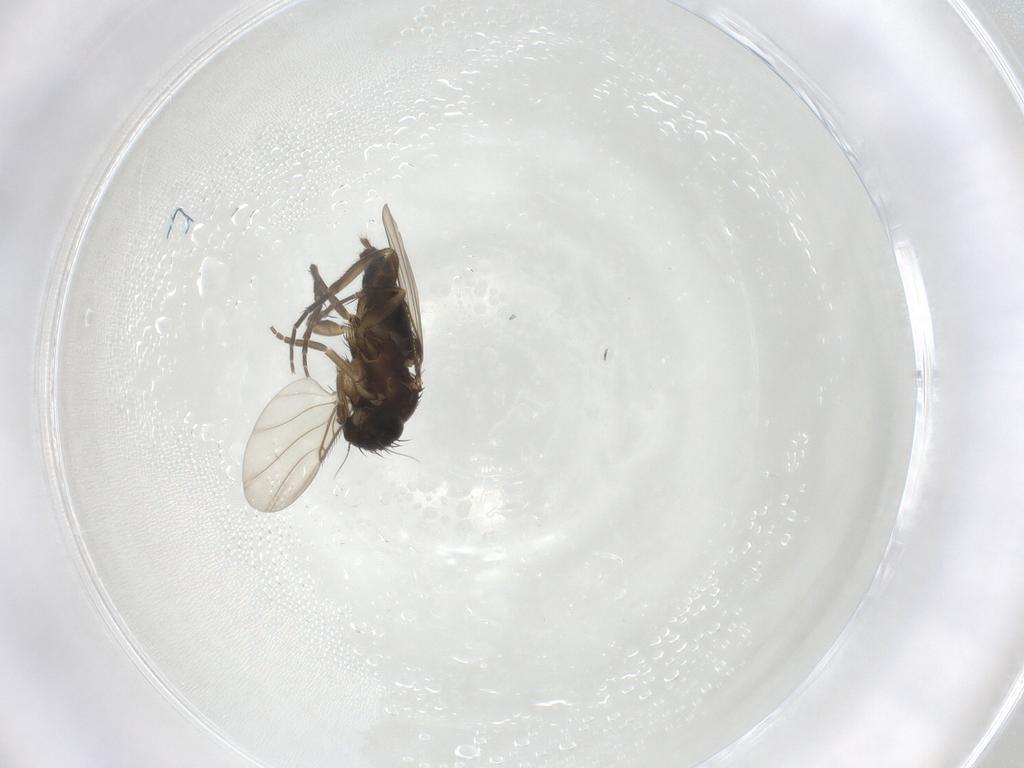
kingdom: Animalia
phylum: Arthropoda
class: Insecta
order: Diptera
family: Phoridae
